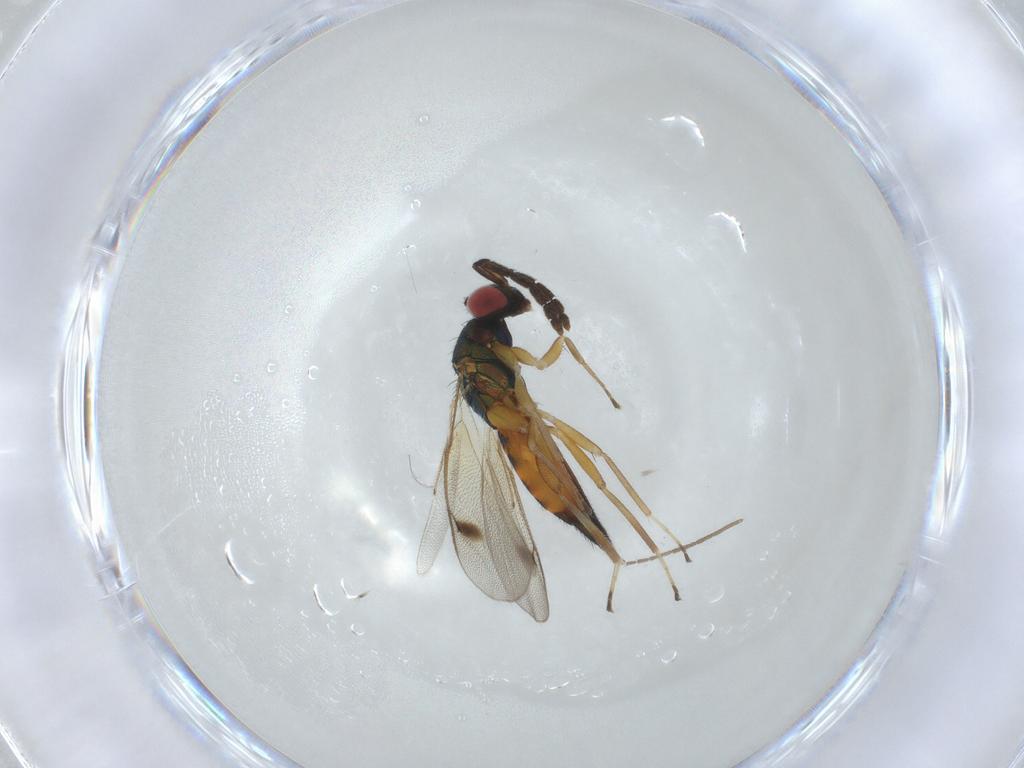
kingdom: Animalia
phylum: Arthropoda
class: Insecta
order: Hymenoptera
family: Eulophidae
